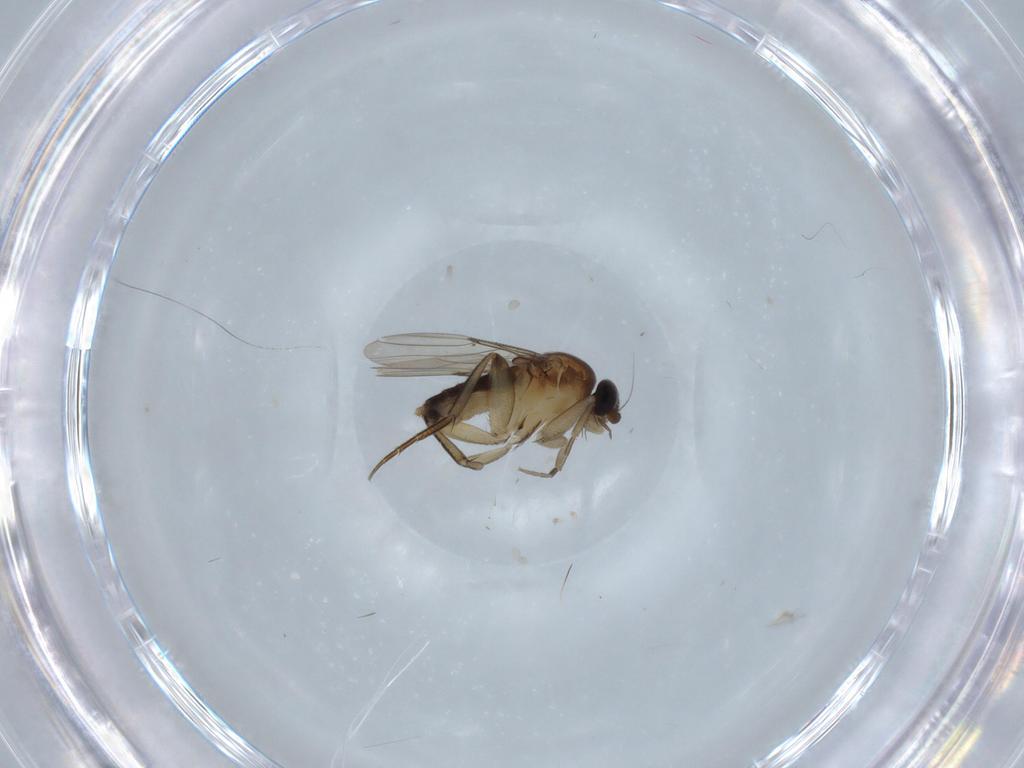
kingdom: Animalia
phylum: Arthropoda
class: Insecta
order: Diptera
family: Phoridae
